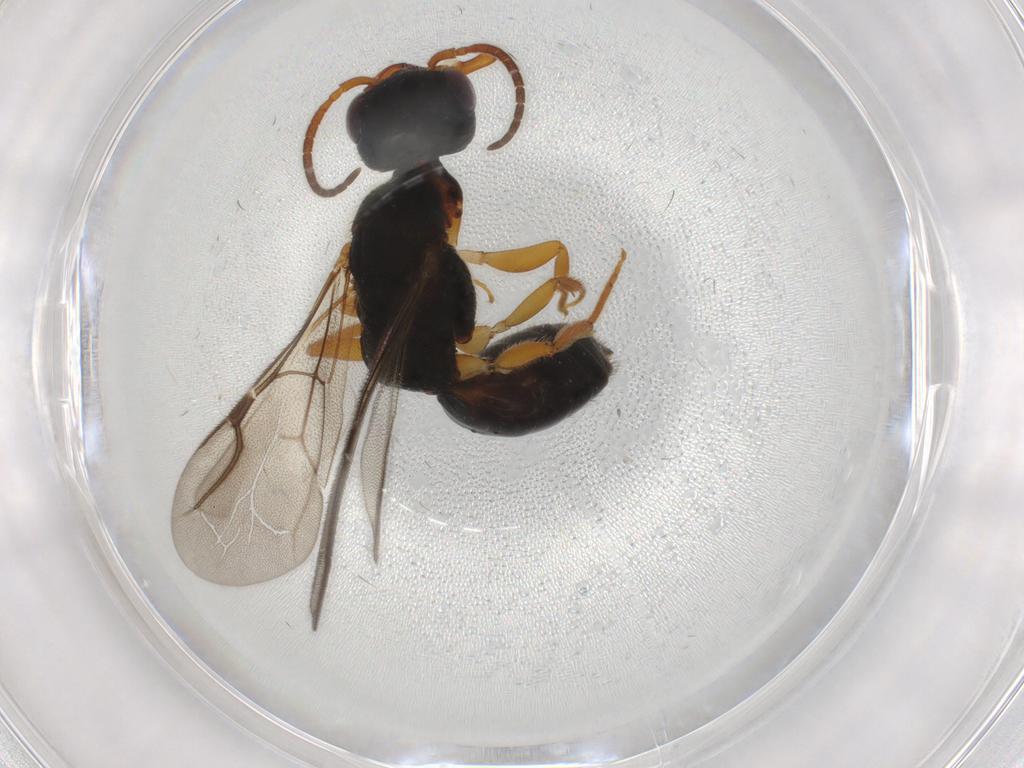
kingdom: Animalia
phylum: Arthropoda
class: Insecta
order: Hymenoptera
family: Bethylidae
